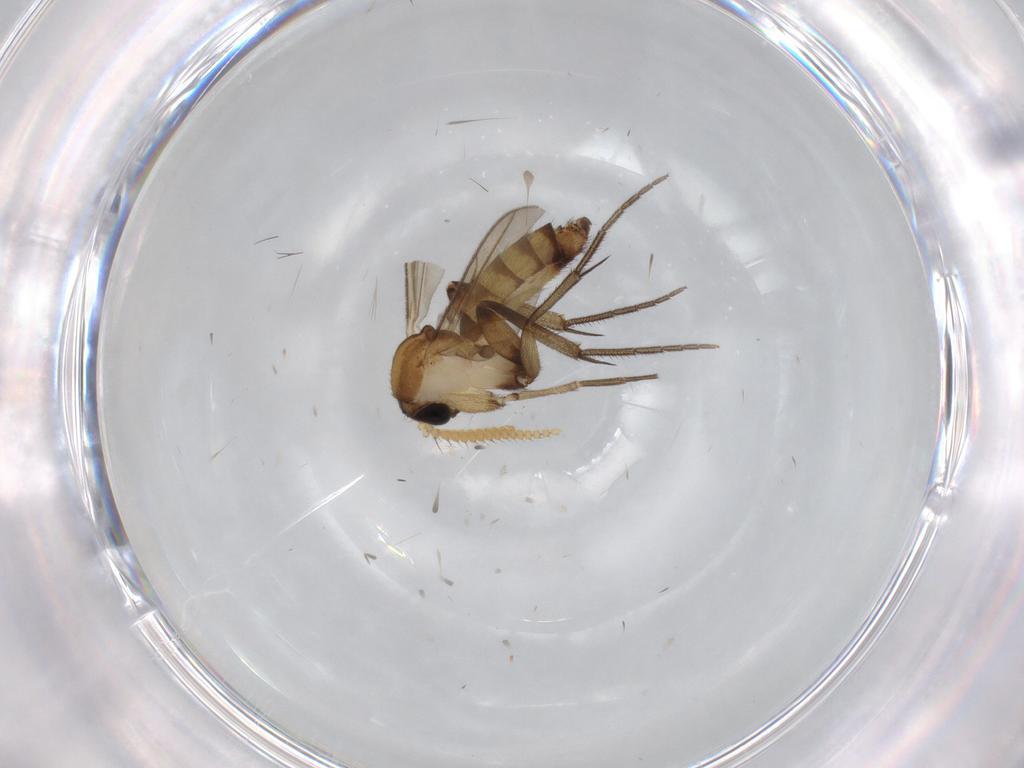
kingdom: Animalia
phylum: Arthropoda
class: Insecta
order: Diptera
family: Phoridae
